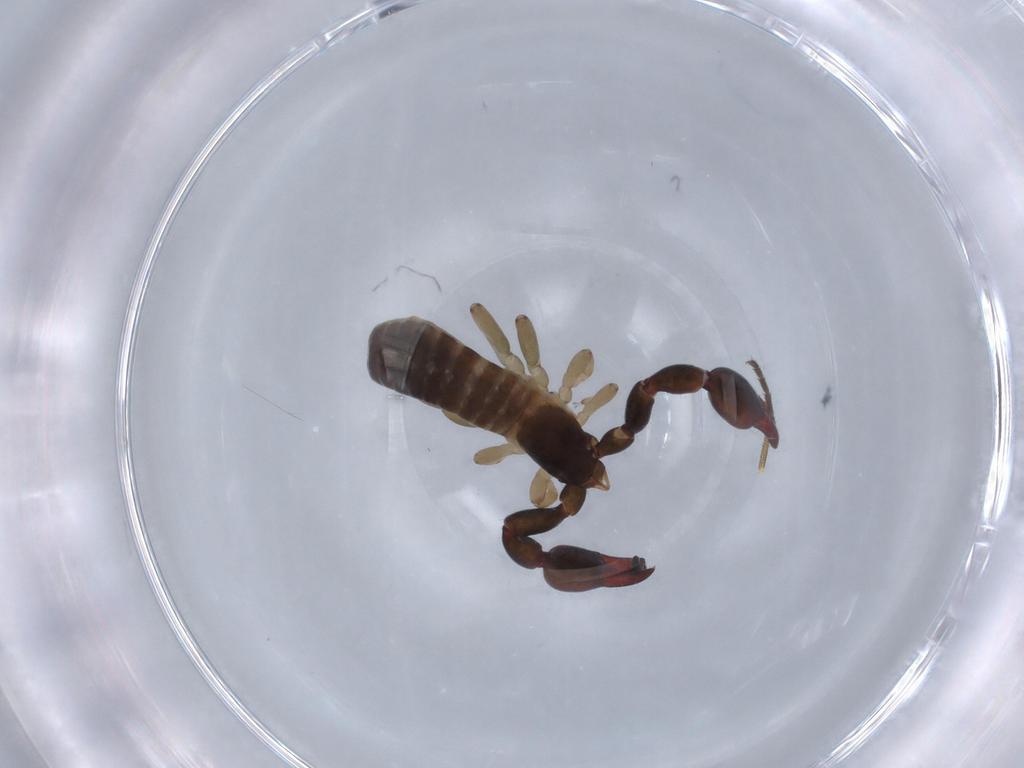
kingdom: Animalia
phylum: Arthropoda
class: Arachnida
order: Pseudoscorpiones
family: Garypinidae
